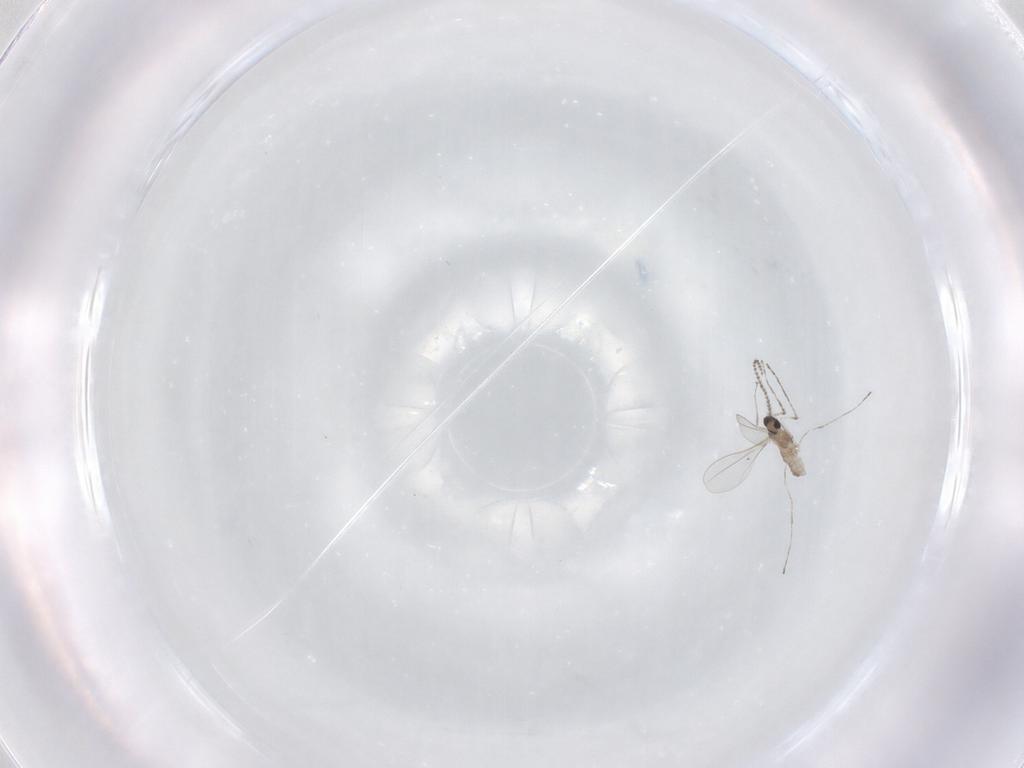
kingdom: Animalia
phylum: Arthropoda
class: Insecta
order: Diptera
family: Cecidomyiidae
